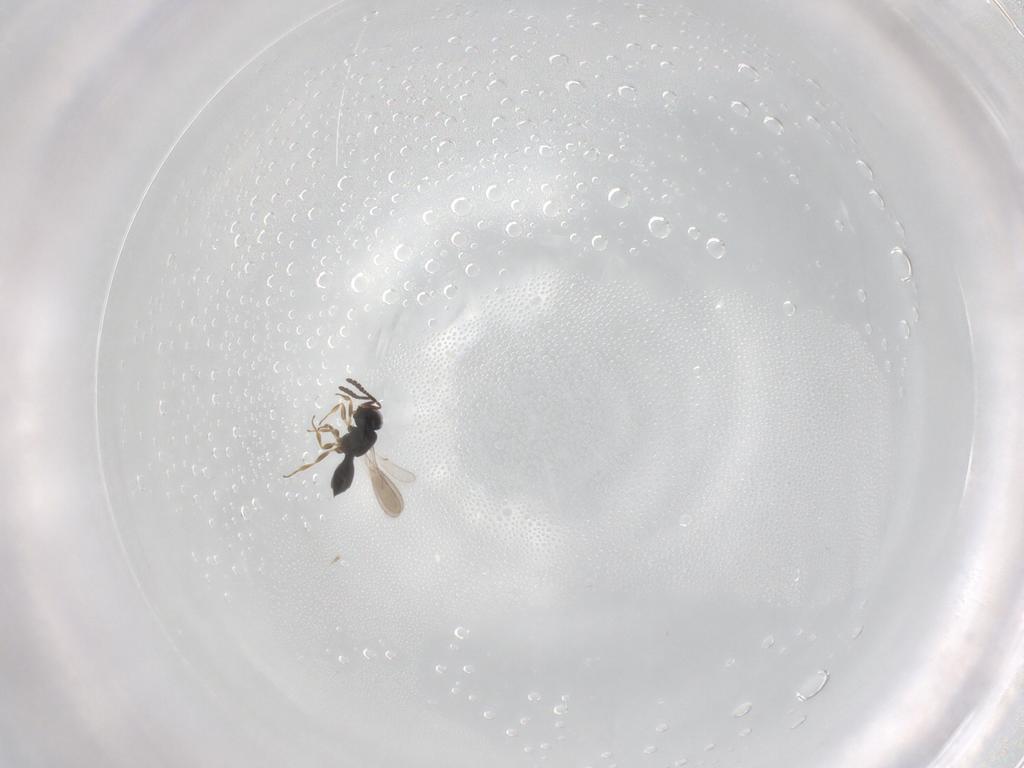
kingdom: Animalia
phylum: Arthropoda
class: Insecta
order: Hymenoptera
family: Scelionidae
